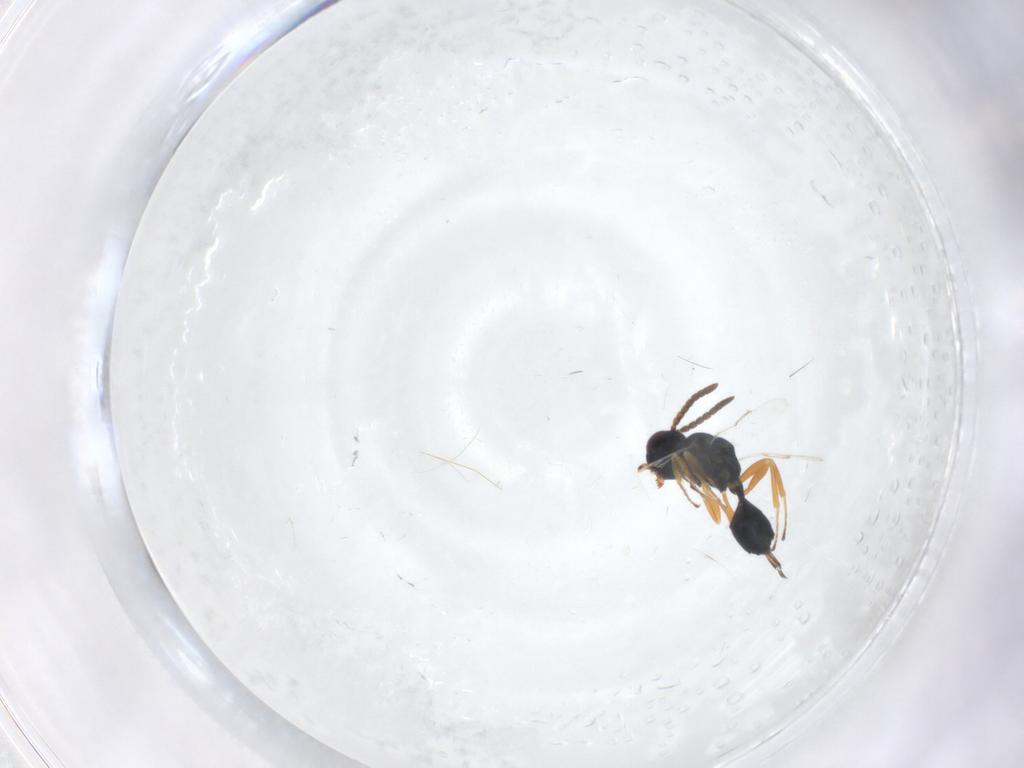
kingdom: Animalia
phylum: Arthropoda
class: Insecta
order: Hymenoptera
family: Pteromalidae
